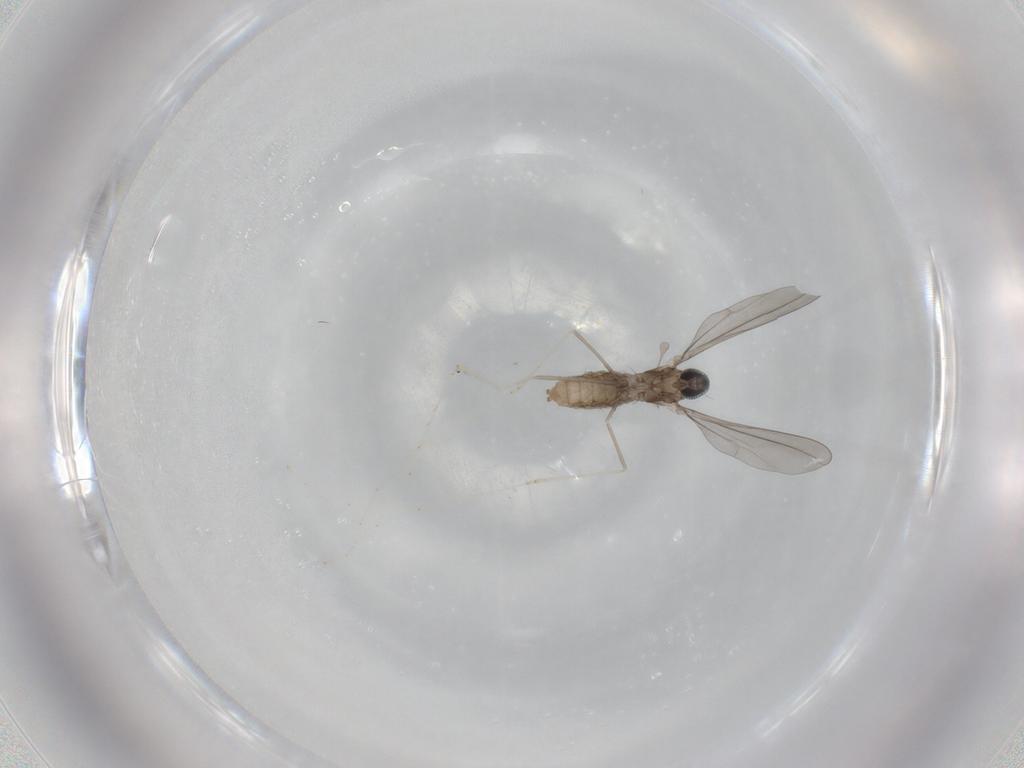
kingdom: Animalia
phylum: Arthropoda
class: Insecta
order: Diptera
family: Cecidomyiidae
